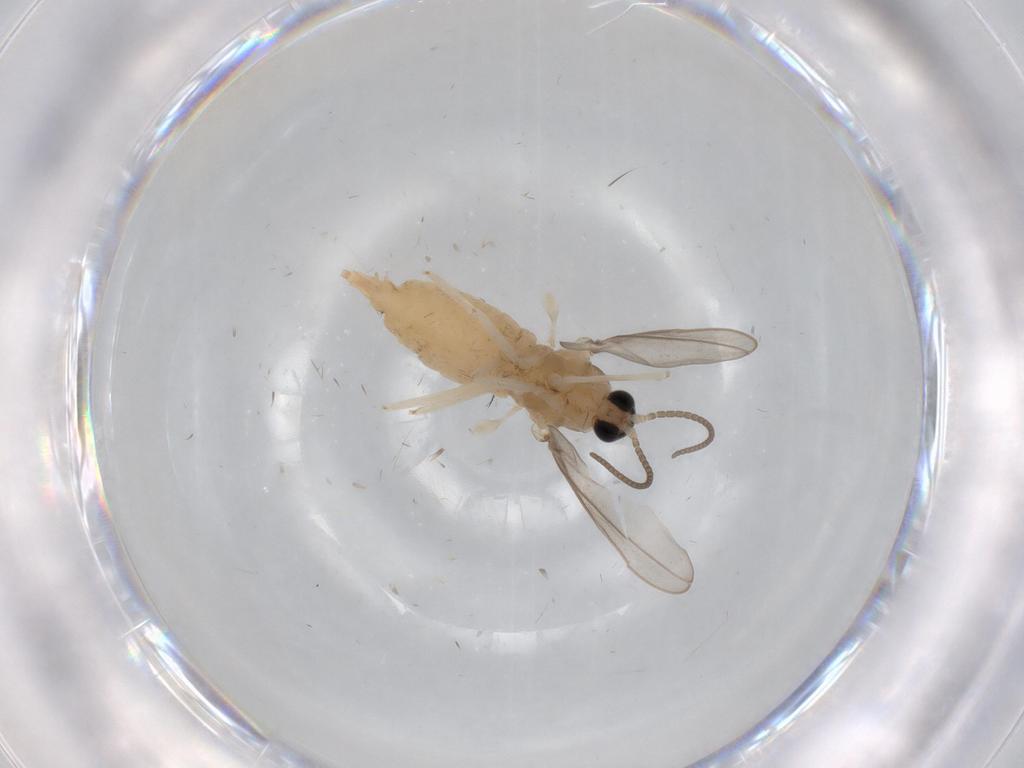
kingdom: Animalia
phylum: Arthropoda
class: Insecta
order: Diptera
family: Cecidomyiidae
